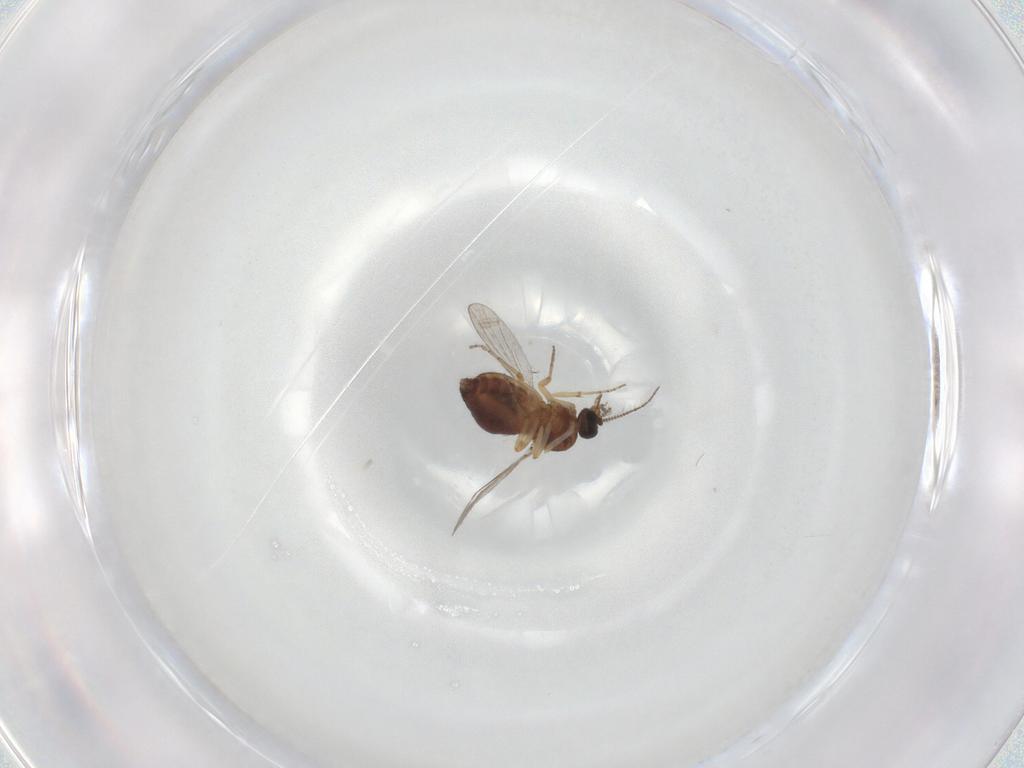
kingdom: Animalia
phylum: Arthropoda
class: Insecta
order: Diptera
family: Ceratopogonidae
